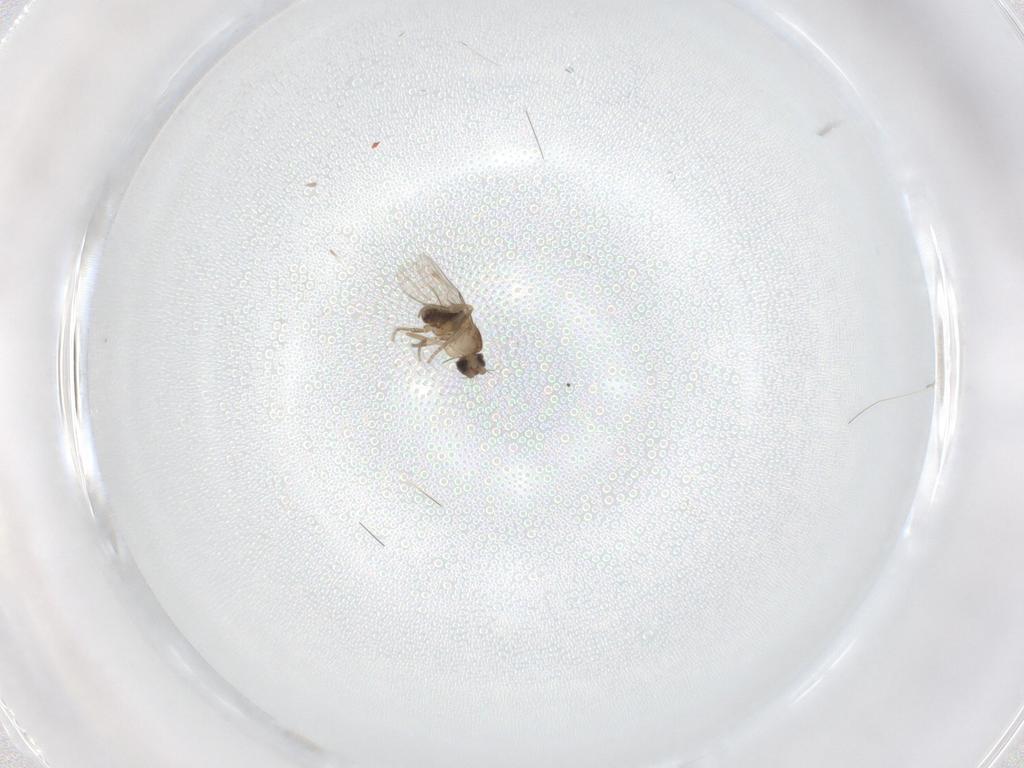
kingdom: Animalia
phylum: Arthropoda
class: Insecta
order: Diptera
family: Phoridae
